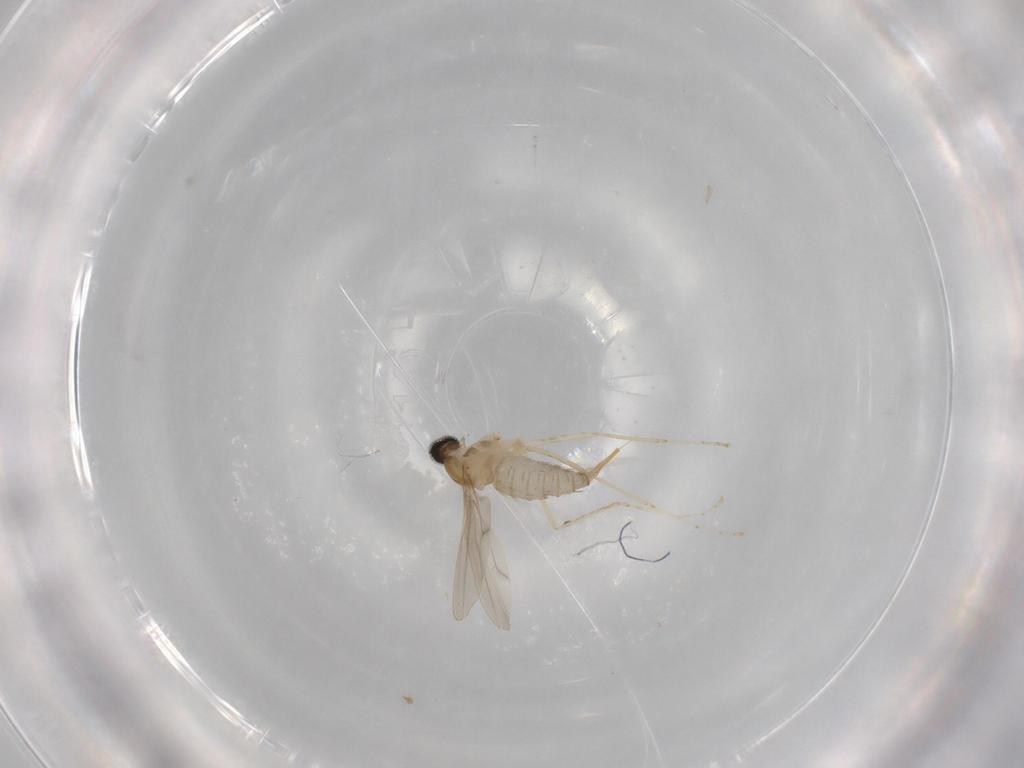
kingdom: Animalia
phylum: Arthropoda
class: Insecta
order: Diptera
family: Cecidomyiidae
